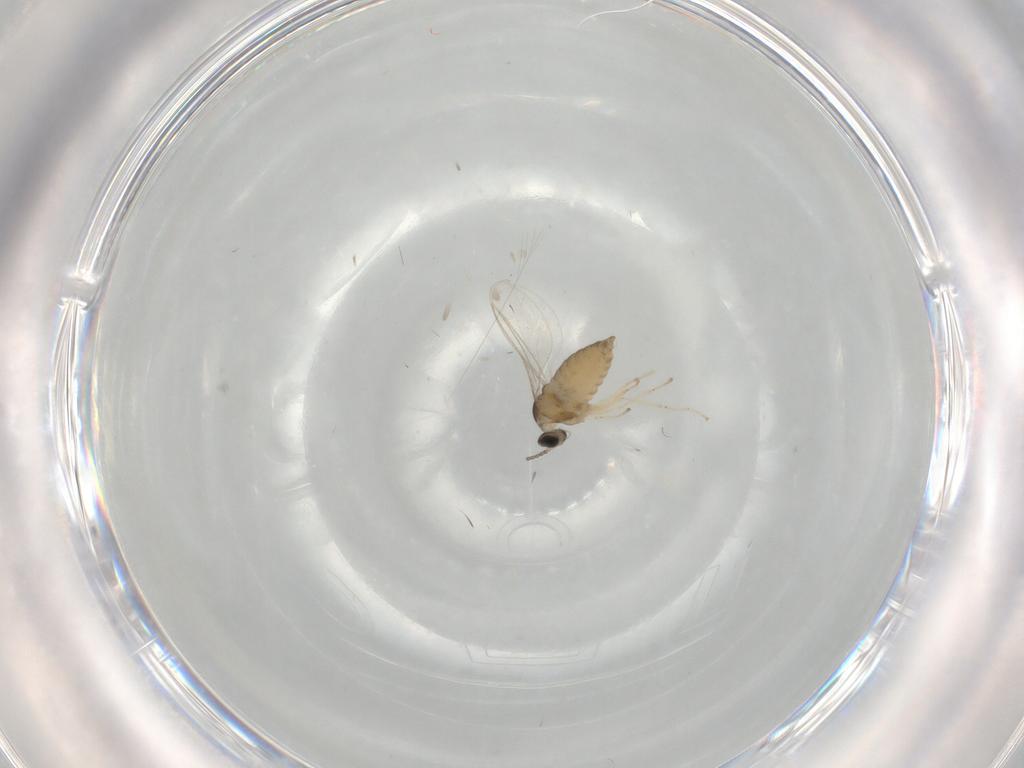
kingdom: Animalia
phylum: Arthropoda
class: Insecta
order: Diptera
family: Cecidomyiidae
